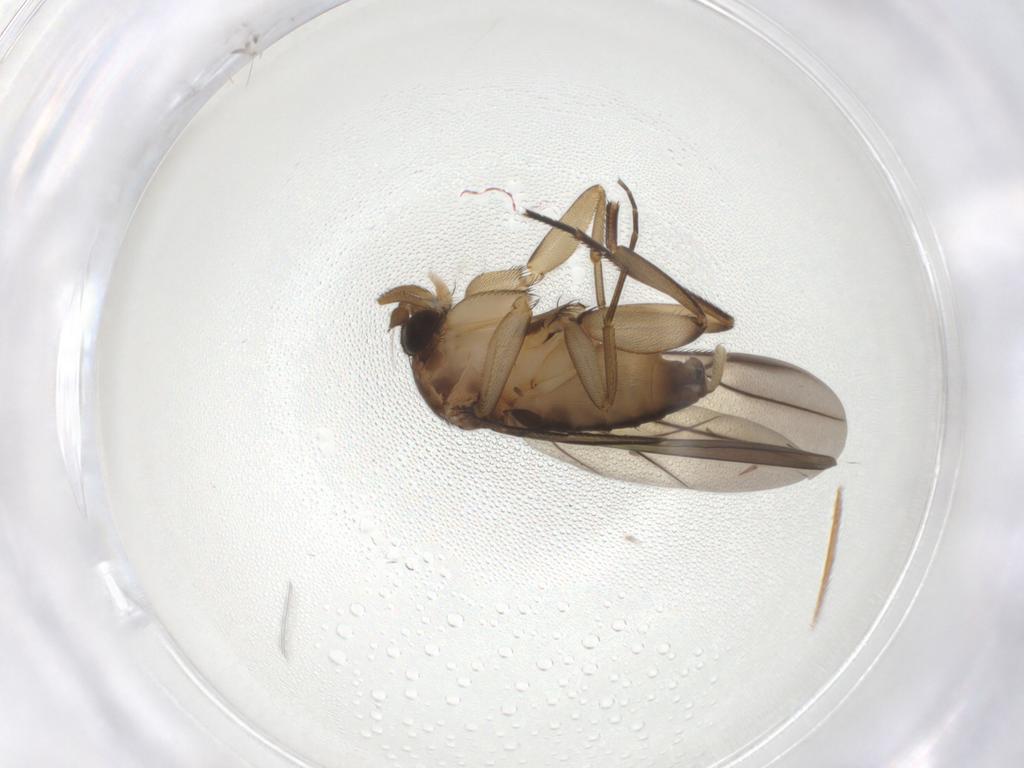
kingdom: Animalia
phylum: Arthropoda
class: Insecta
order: Diptera
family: Phoridae
